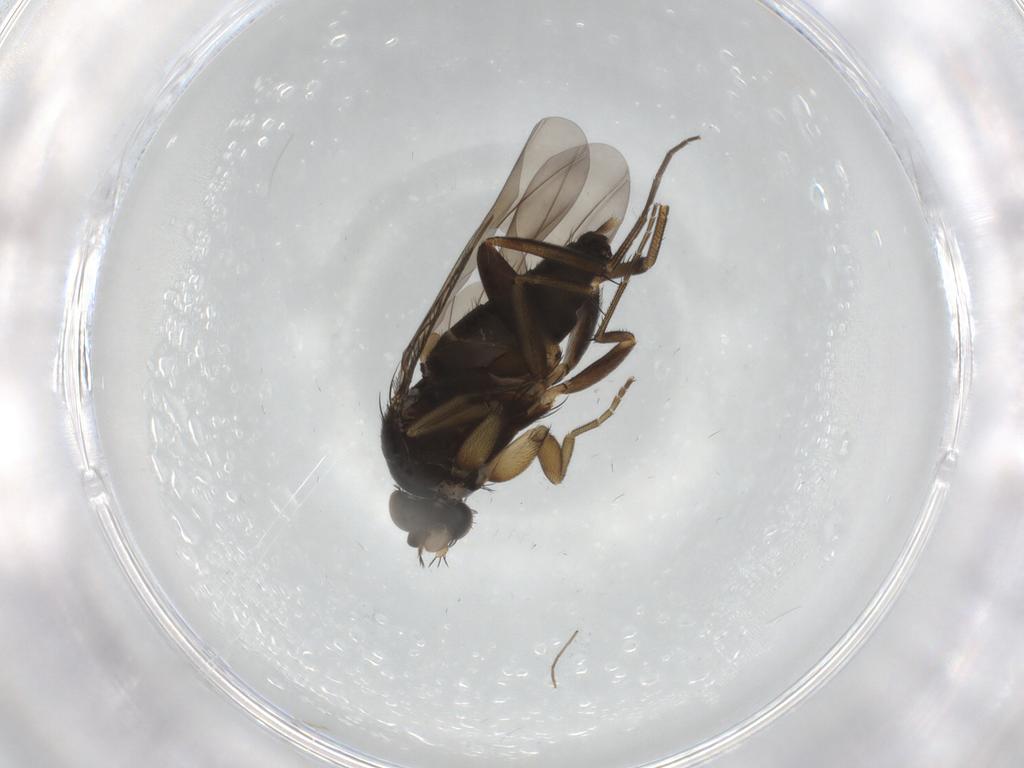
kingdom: Animalia
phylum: Arthropoda
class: Insecta
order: Diptera
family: Phoridae
